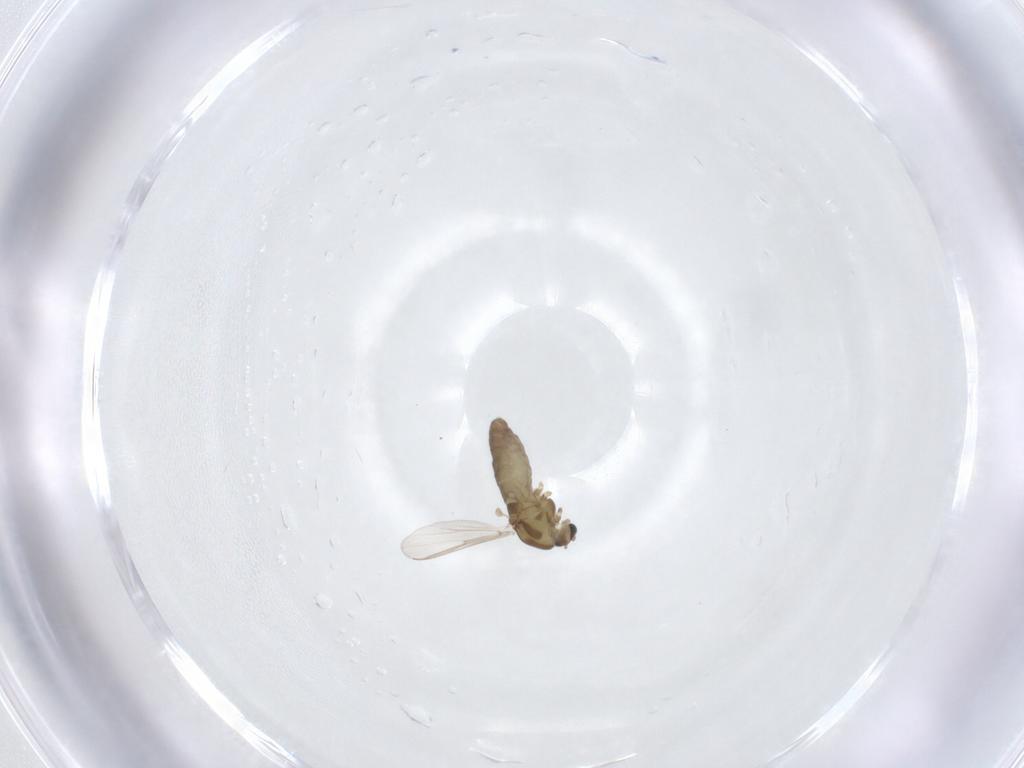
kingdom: Animalia
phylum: Arthropoda
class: Insecta
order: Diptera
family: Chironomidae
